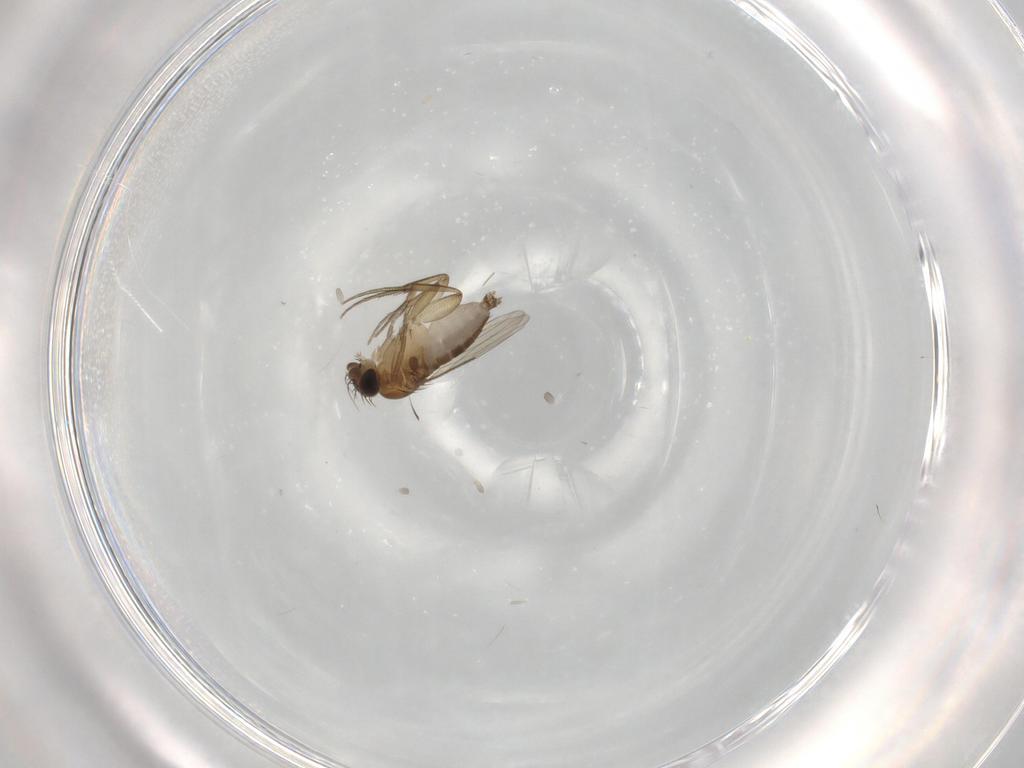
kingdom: Animalia
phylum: Arthropoda
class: Insecta
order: Diptera
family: Phoridae
